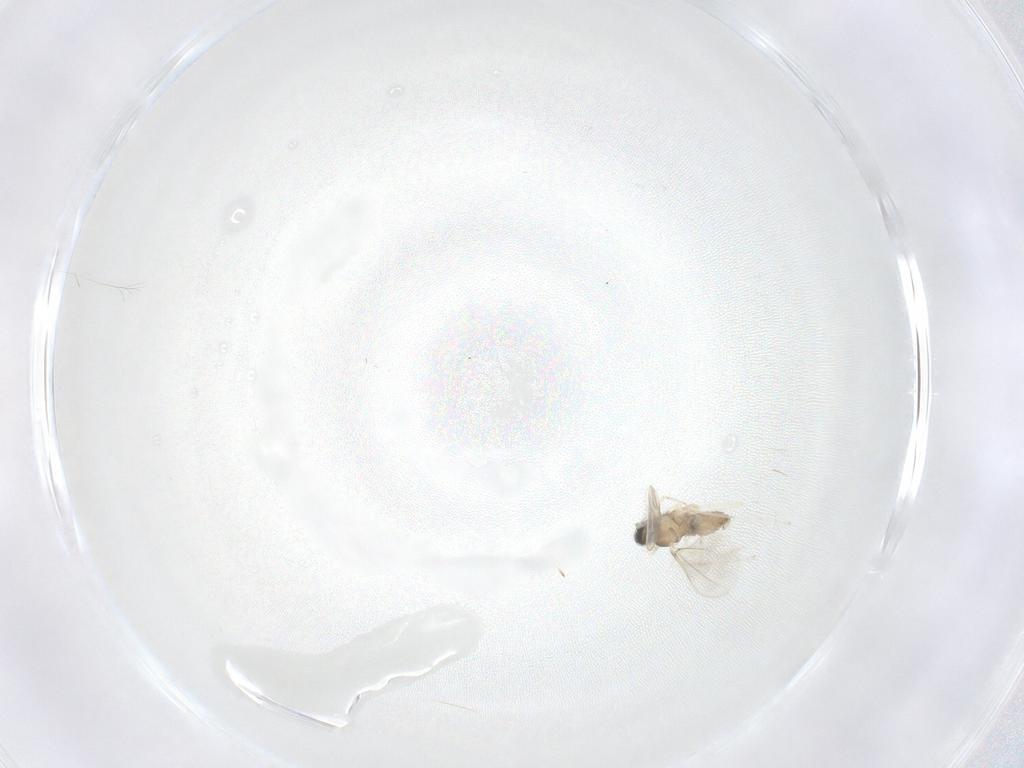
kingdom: Animalia
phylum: Arthropoda
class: Insecta
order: Diptera
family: Cecidomyiidae
